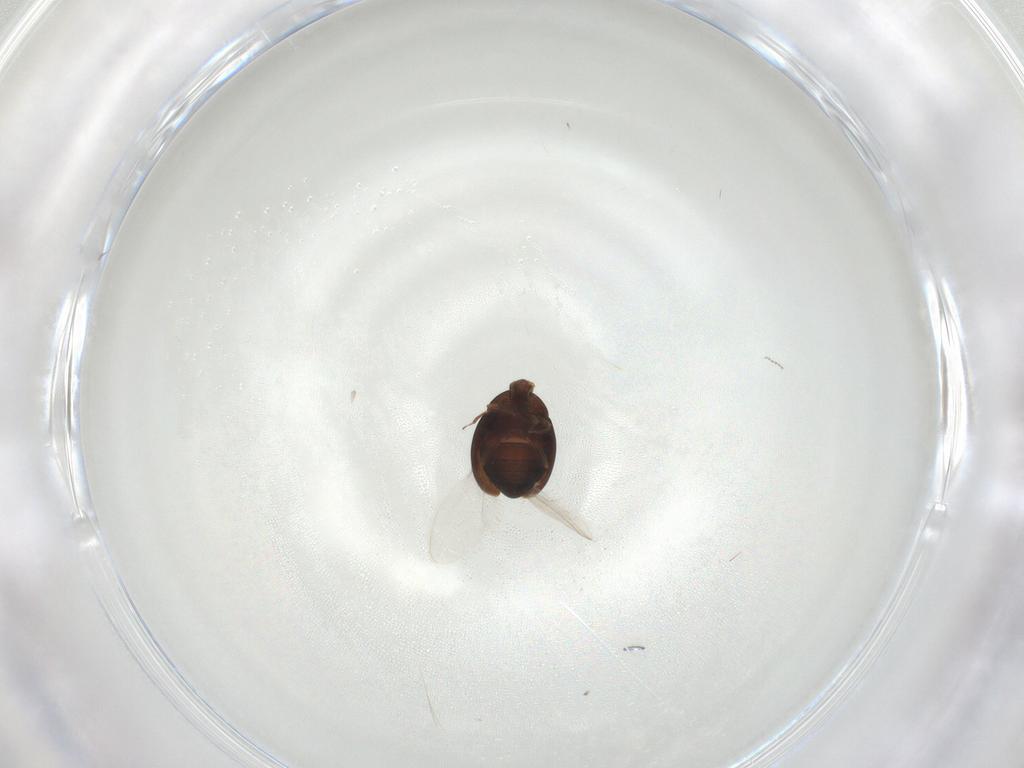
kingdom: Animalia
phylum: Arthropoda
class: Insecta
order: Coleoptera
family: Corylophidae
